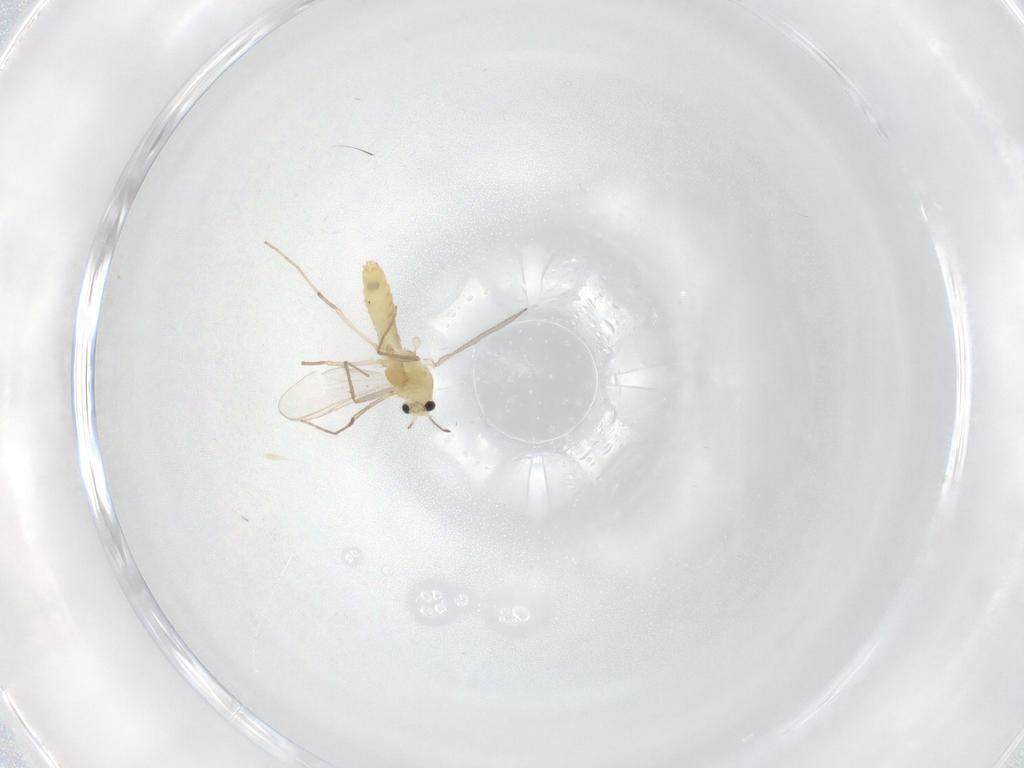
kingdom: Animalia
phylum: Arthropoda
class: Insecta
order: Diptera
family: Chironomidae
